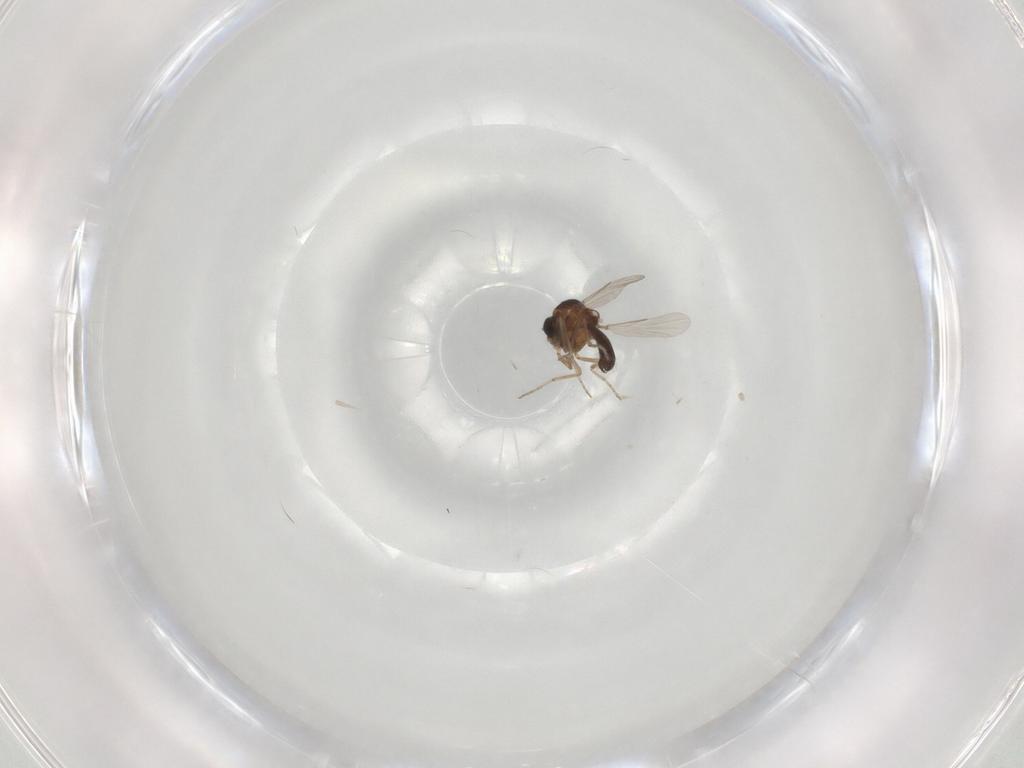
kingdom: Animalia
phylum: Arthropoda
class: Insecta
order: Diptera
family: Ceratopogonidae
